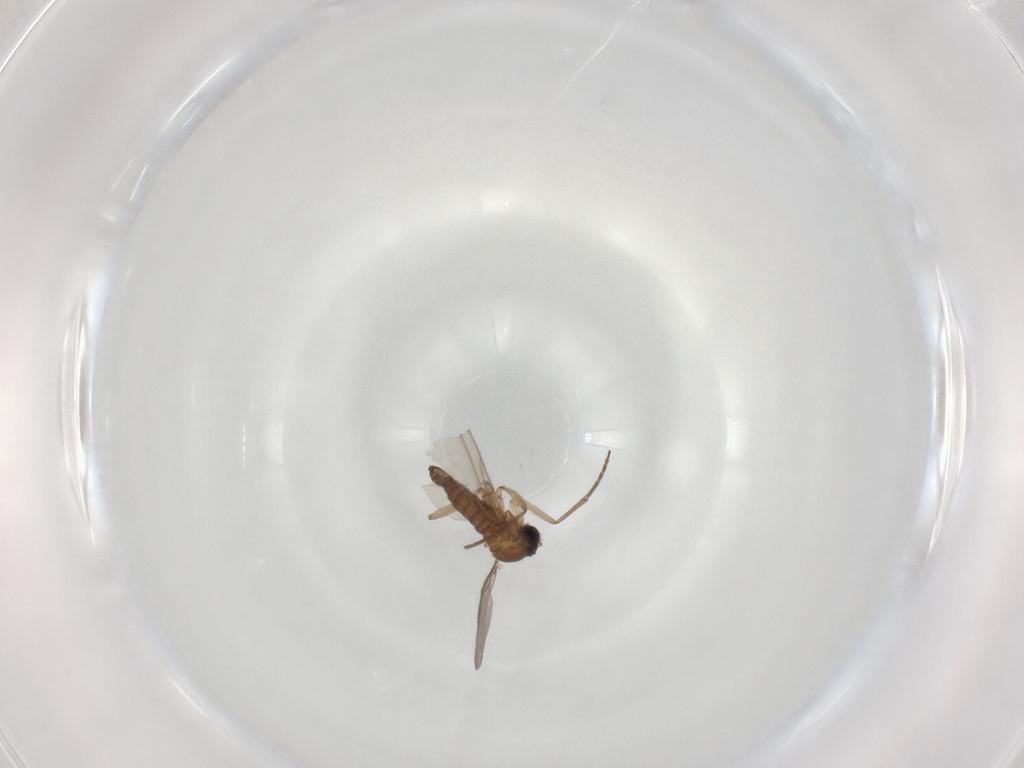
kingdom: Animalia
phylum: Arthropoda
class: Insecta
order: Diptera
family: Sciaridae
